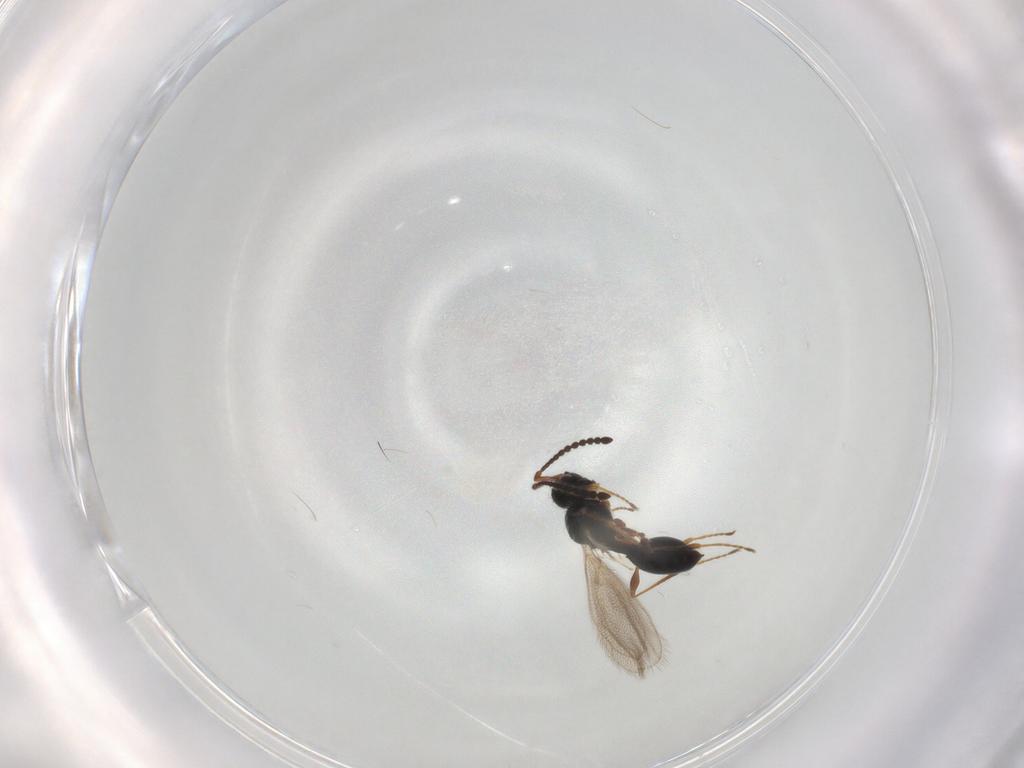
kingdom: Animalia
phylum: Arthropoda
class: Insecta
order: Hymenoptera
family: Diapriidae
